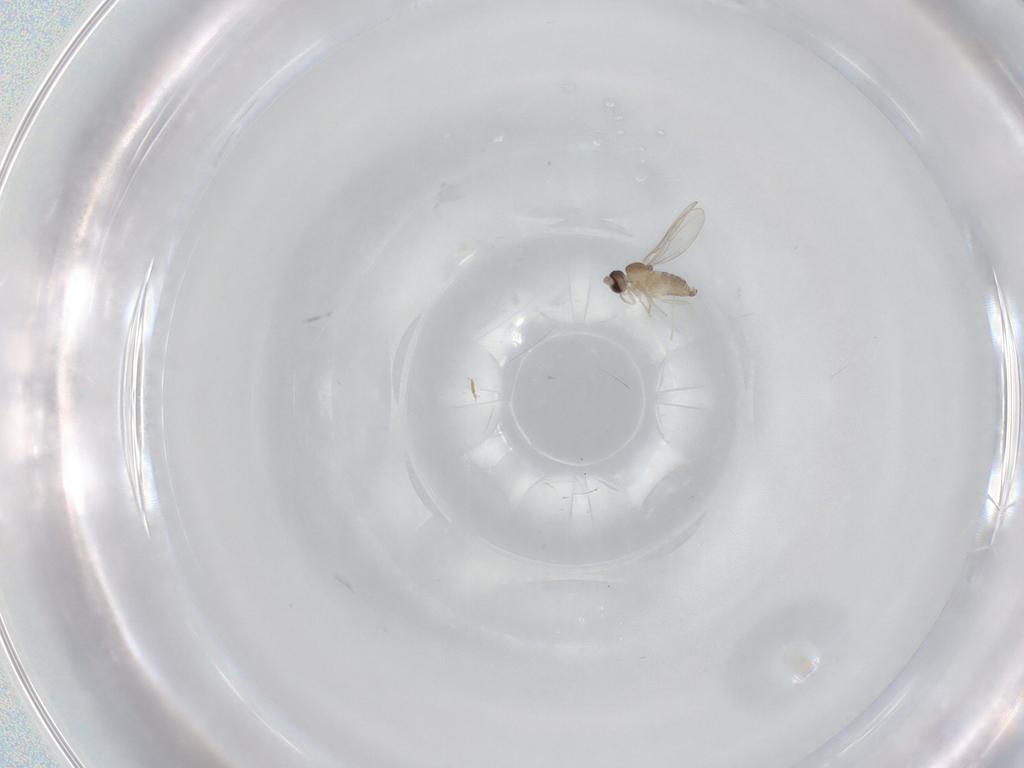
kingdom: Animalia
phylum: Arthropoda
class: Insecta
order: Diptera
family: Cecidomyiidae
